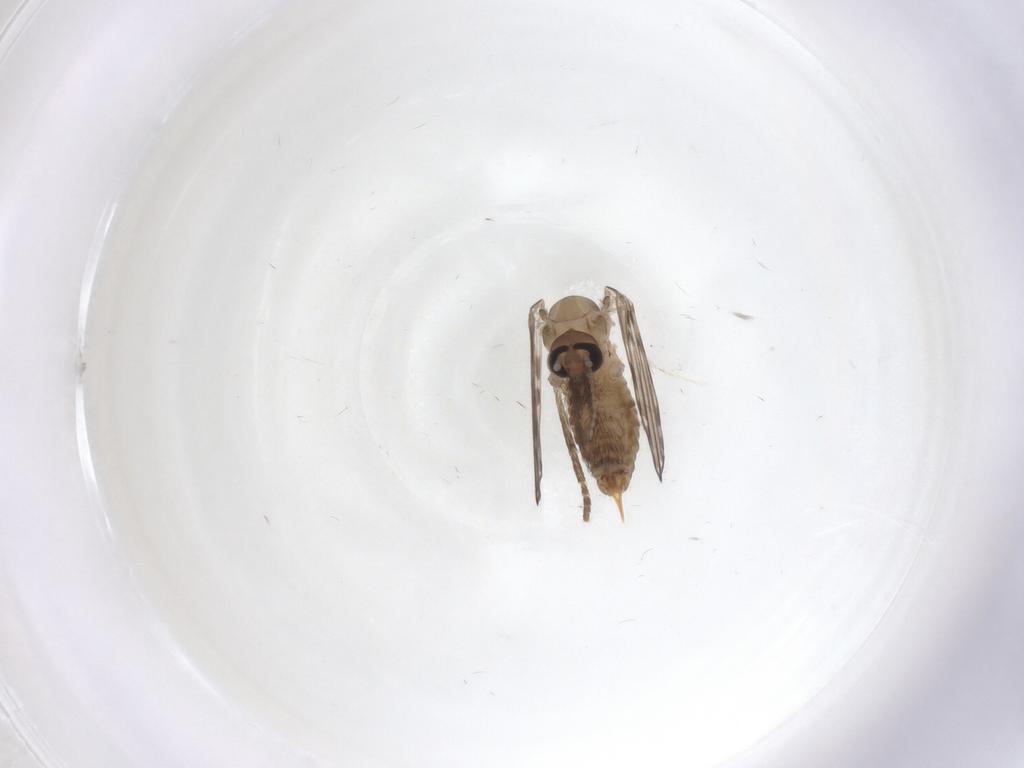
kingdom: Animalia
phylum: Arthropoda
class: Insecta
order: Diptera
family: Psychodidae
